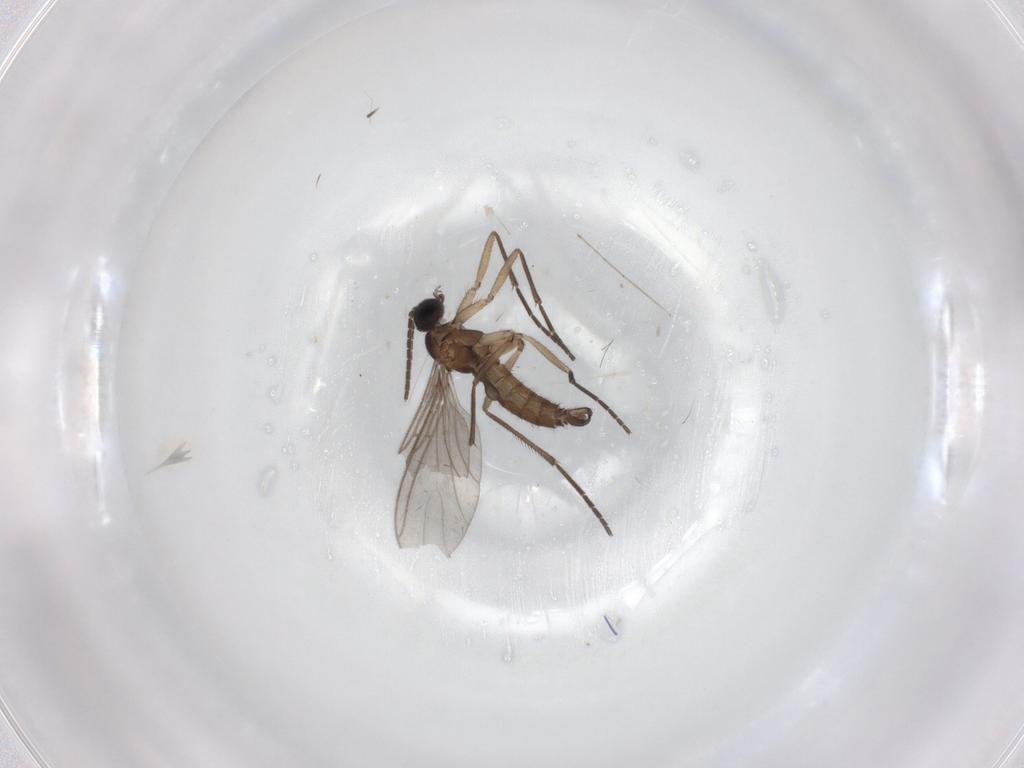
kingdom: Animalia
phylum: Arthropoda
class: Insecta
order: Diptera
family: Sciaridae
